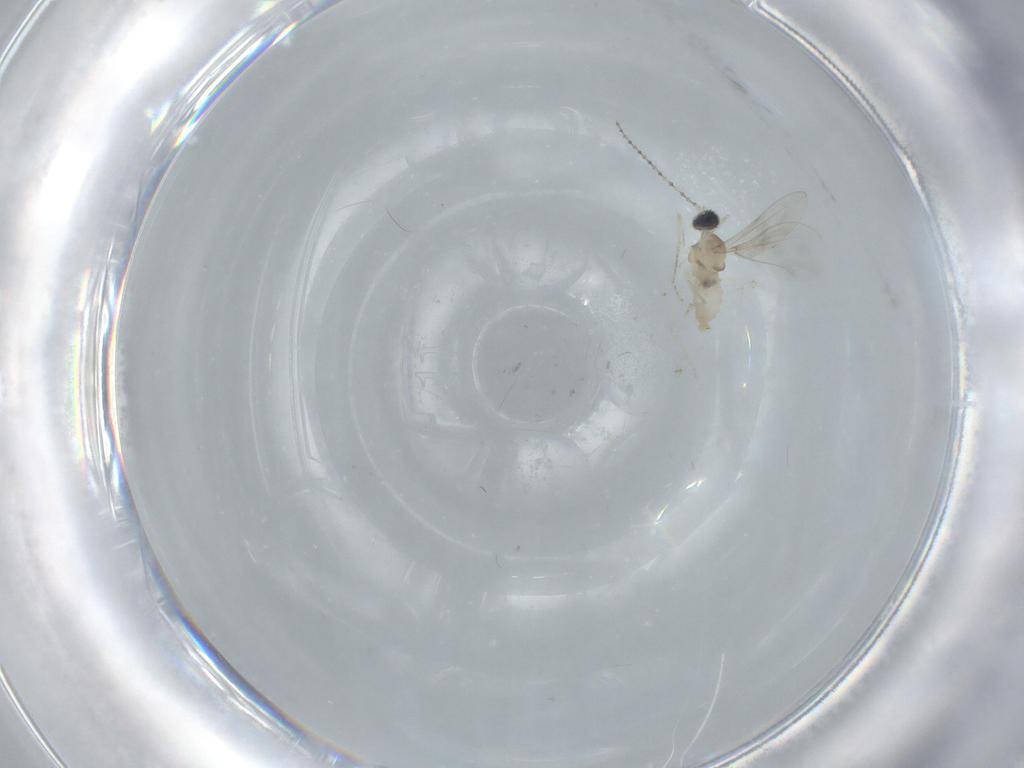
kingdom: Animalia
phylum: Arthropoda
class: Insecta
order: Diptera
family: Cecidomyiidae
